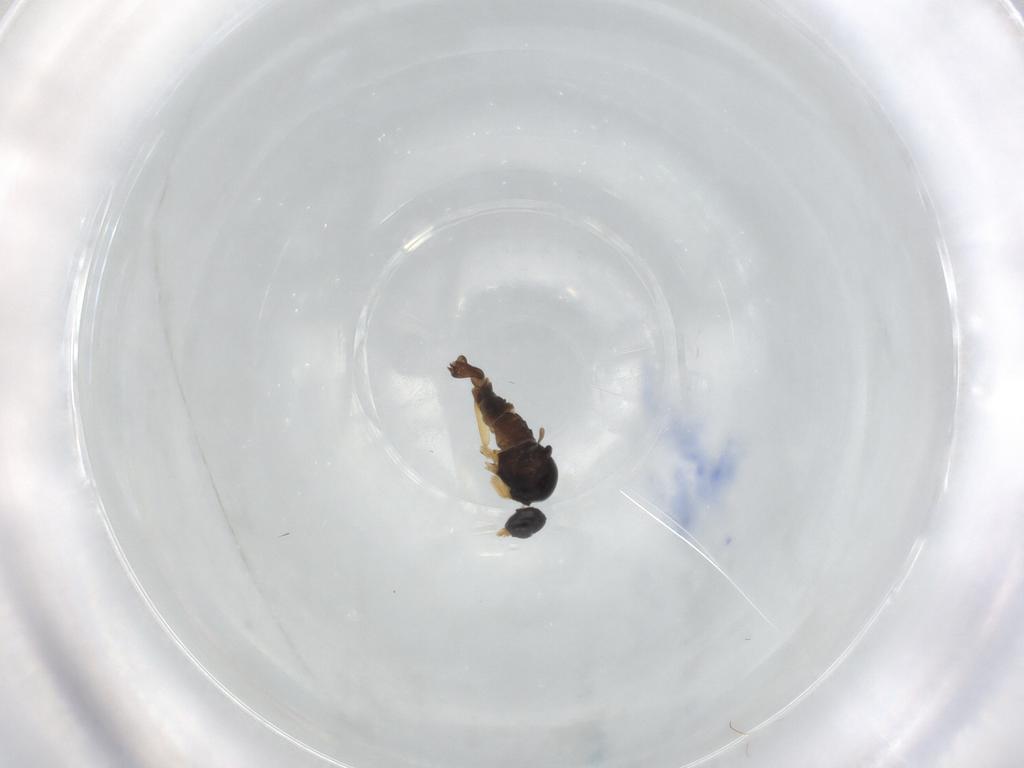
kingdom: Animalia
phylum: Arthropoda
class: Insecta
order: Diptera
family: Hybotidae
